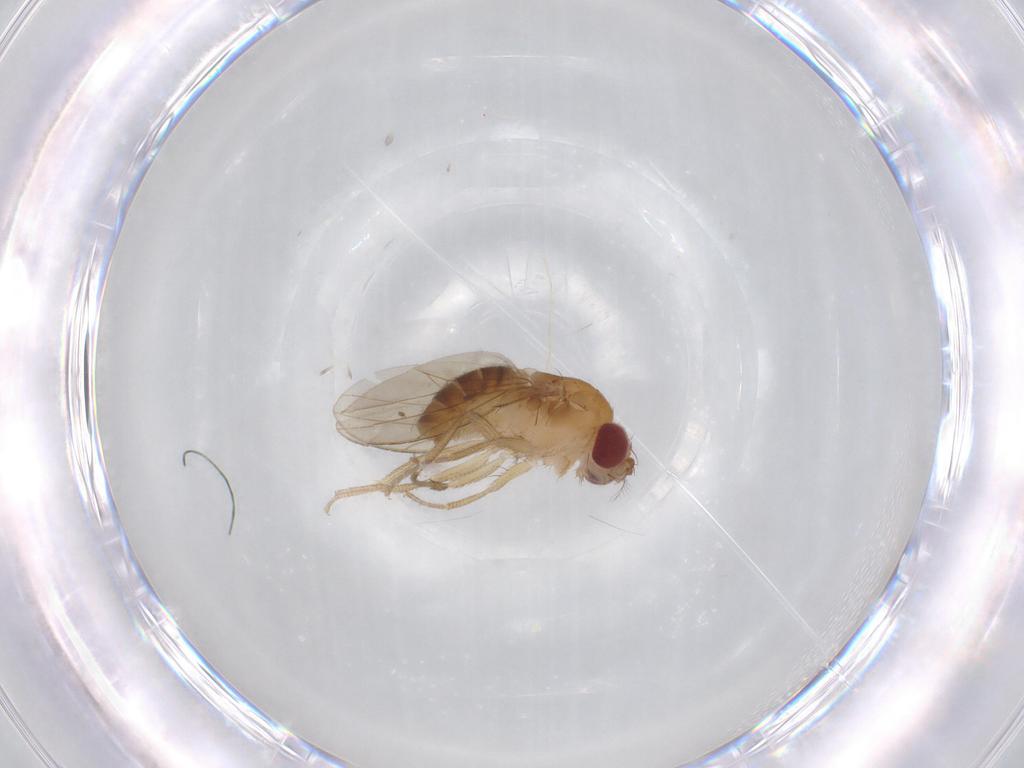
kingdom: Animalia
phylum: Arthropoda
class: Insecta
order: Diptera
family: Drosophilidae
